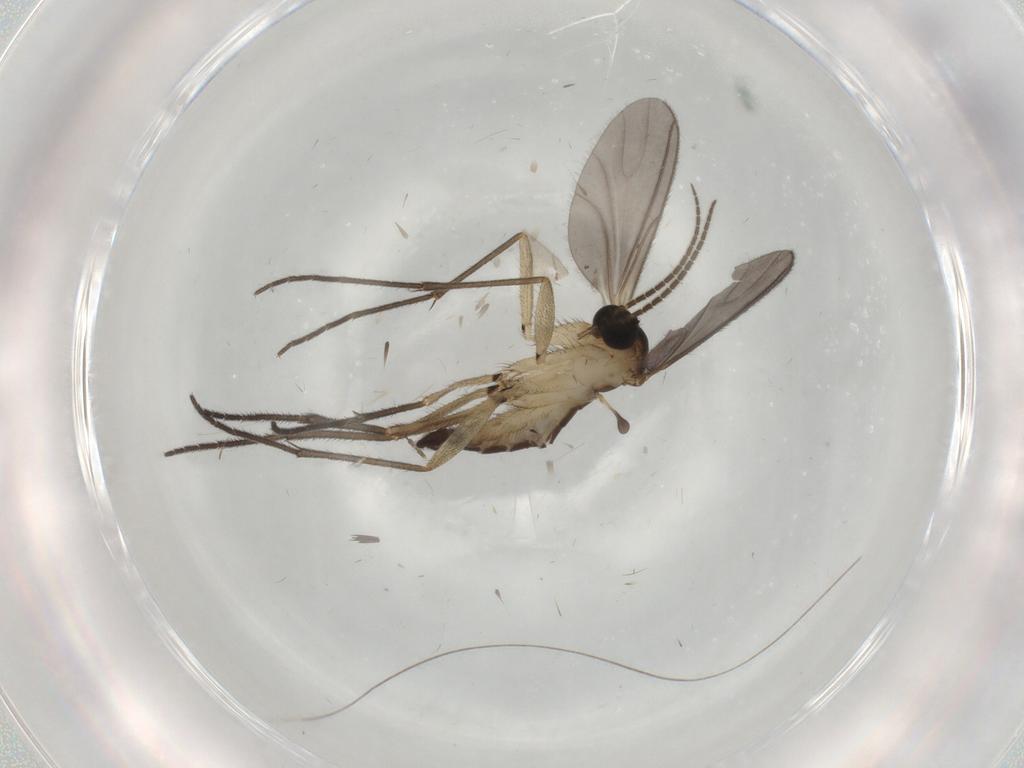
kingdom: Animalia
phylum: Arthropoda
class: Insecta
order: Diptera
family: Sciaridae
